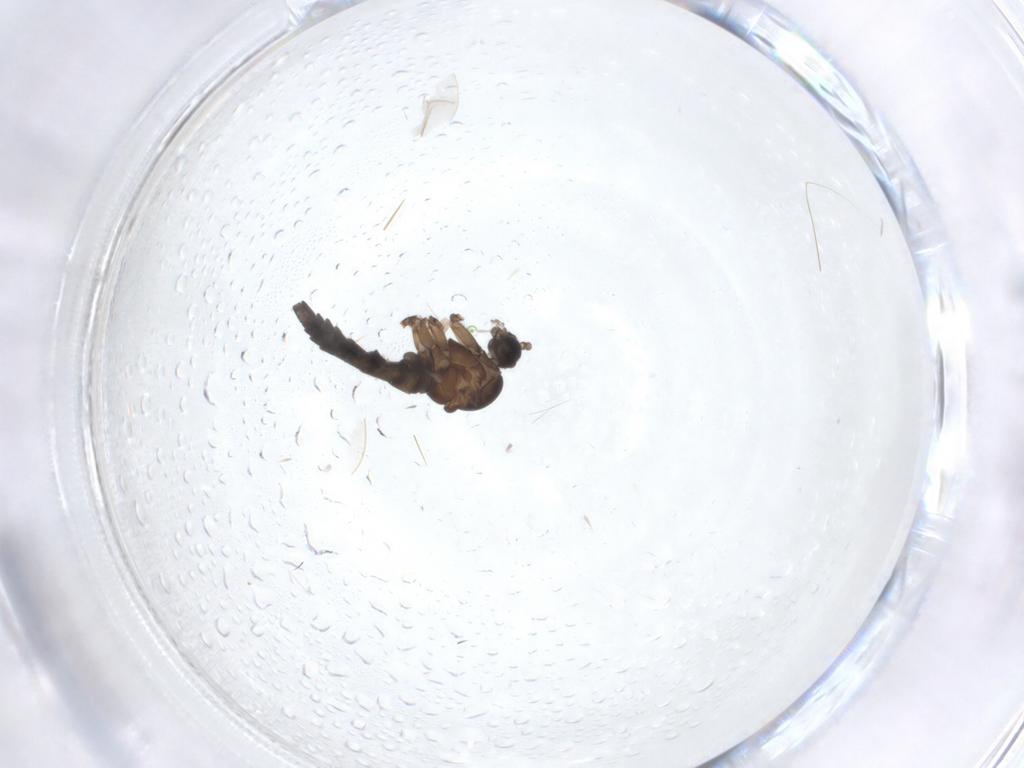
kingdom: Animalia
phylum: Arthropoda
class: Insecta
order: Diptera
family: Sciaridae
